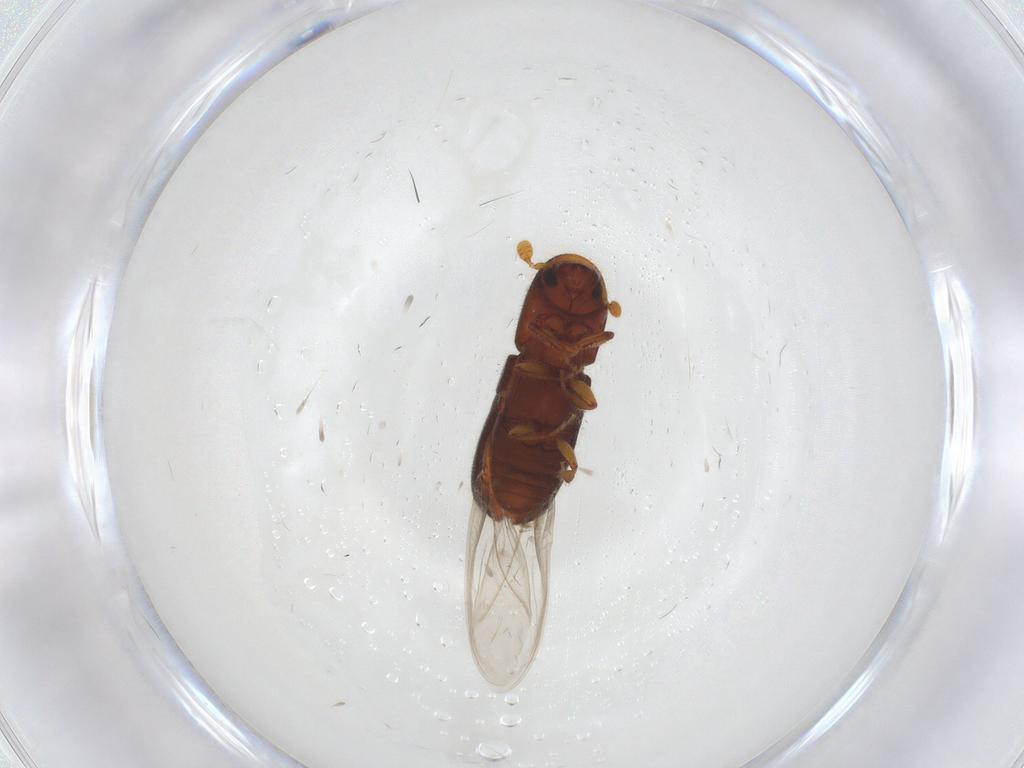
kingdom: Animalia
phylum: Arthropoda
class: Insecta
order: Coleoptera
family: Curculionidae
